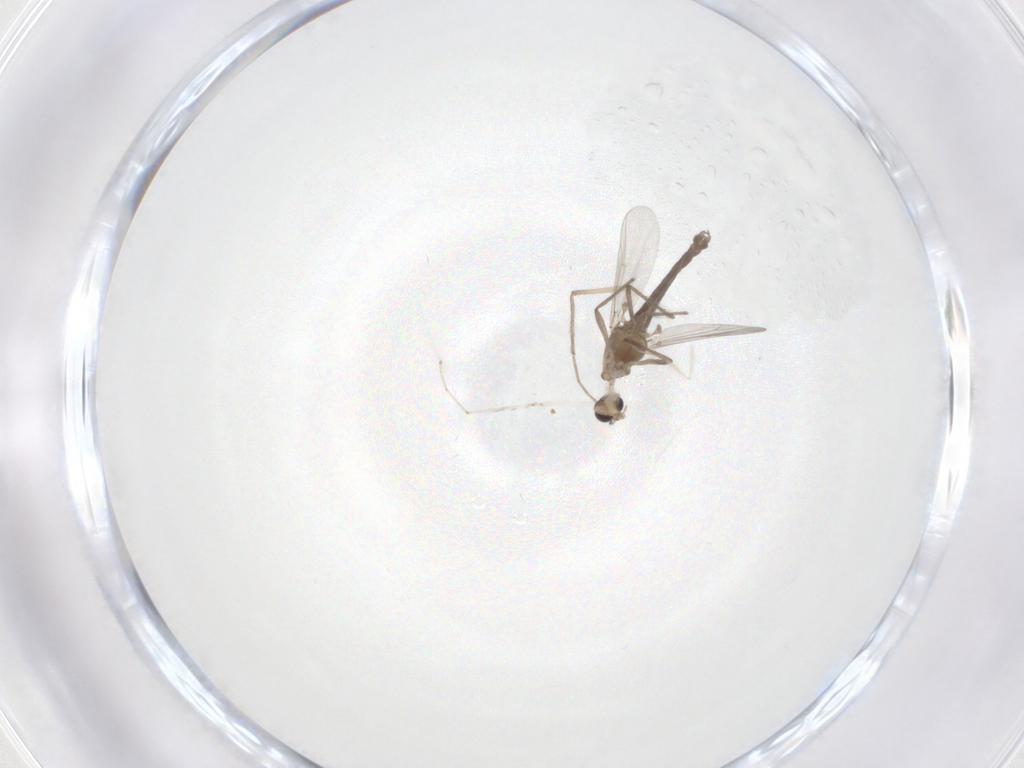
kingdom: Animalia
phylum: Arthropoda
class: Insecta
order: Diptera
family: Chironomidae
